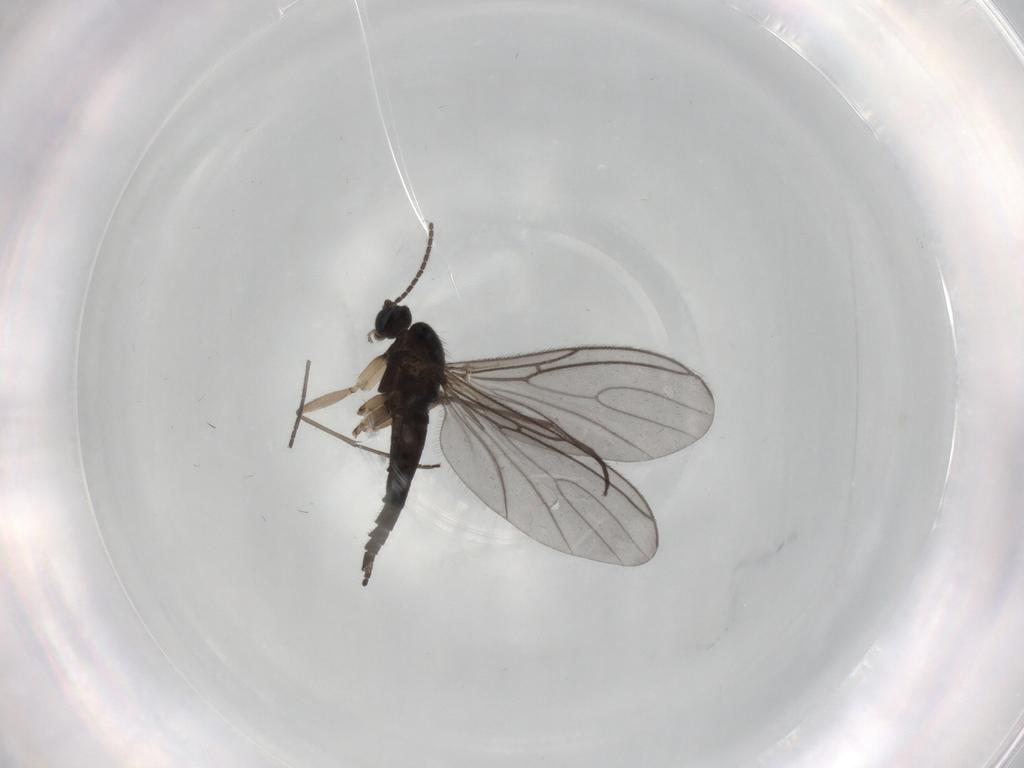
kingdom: Animalia
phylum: Arthropoda
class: Insecta
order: Diptera
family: Sciaridae
